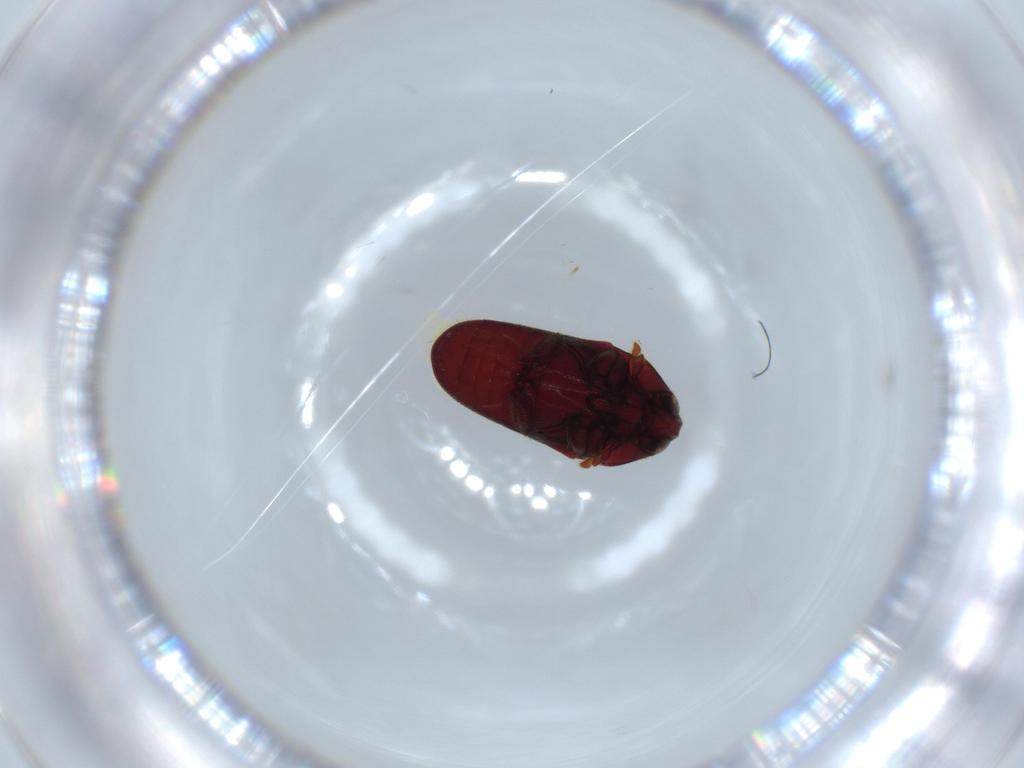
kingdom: Animalia
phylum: Arthropoda
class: Insecta
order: Coleoptera
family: Throscidae
